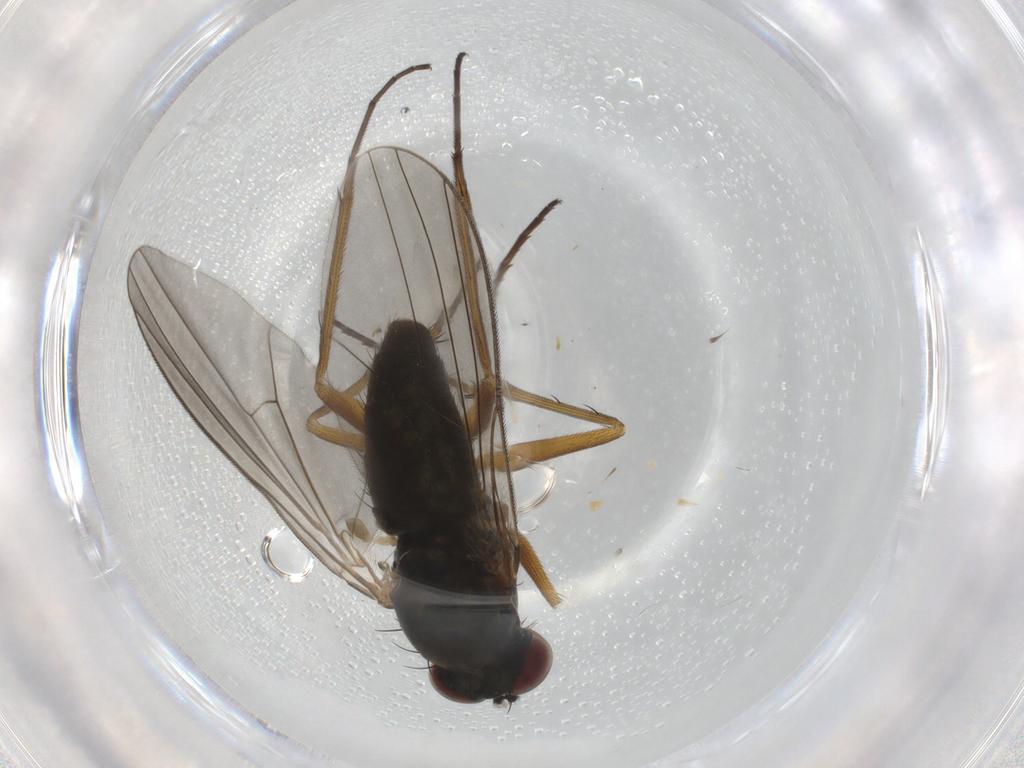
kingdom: Animalia
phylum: Arthropoda
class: Insecta
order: Diptera
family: Dolichopodidae
